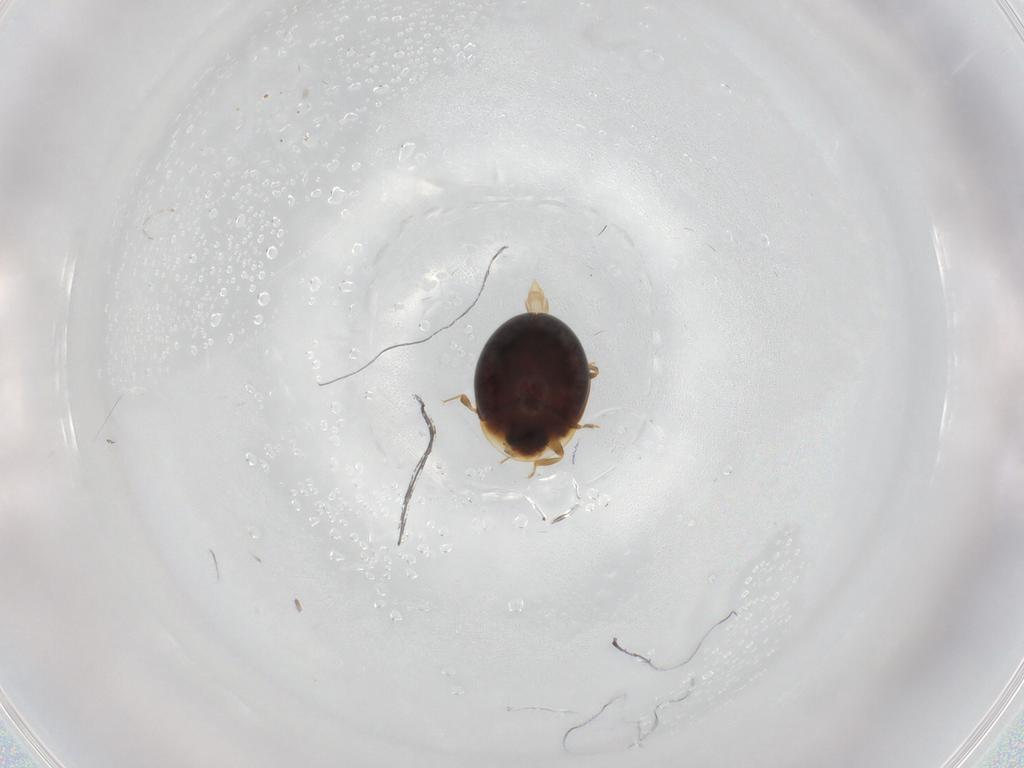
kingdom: Animalia
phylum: Arthropoda
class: Insecta
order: Coleoptera
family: Corylophidae
